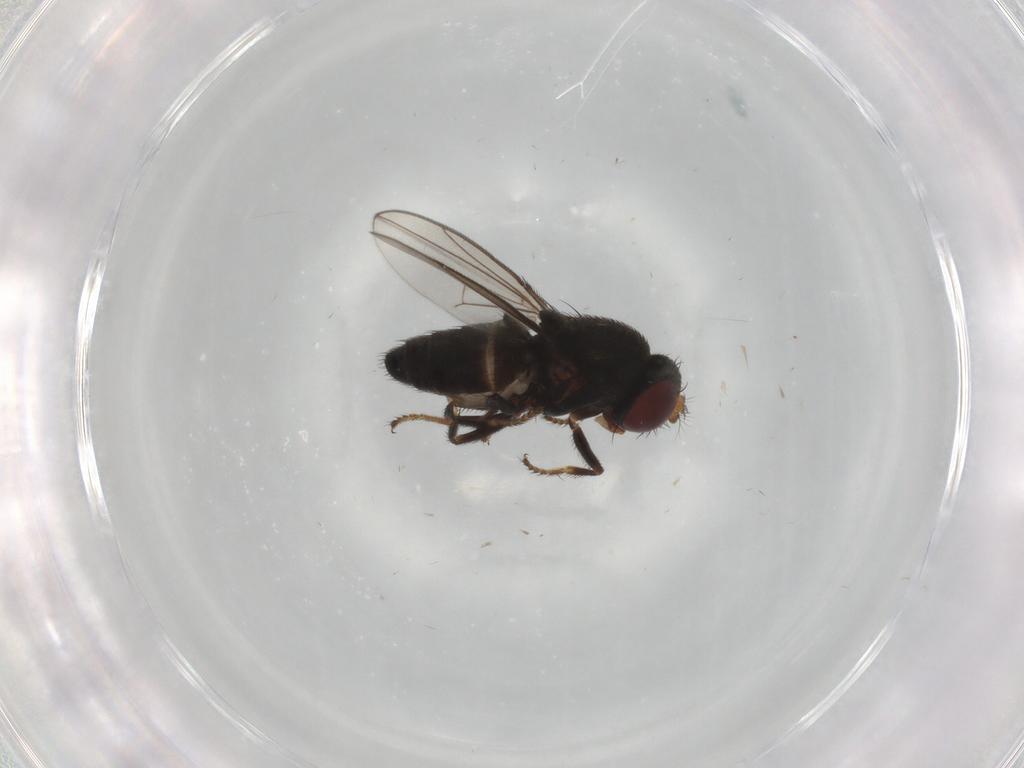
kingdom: Animalia
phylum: Arthropoda
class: Insecta
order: Diptera
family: Ephydridae
